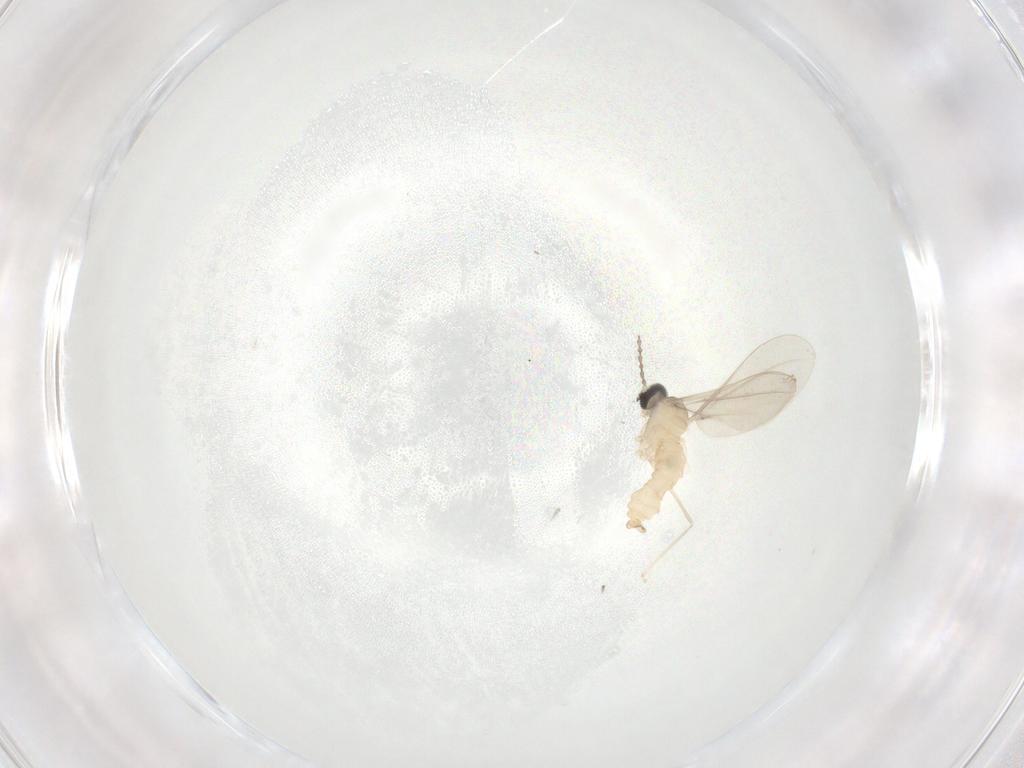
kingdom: Animalia
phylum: Arthropoda
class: Insecta
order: Diptera
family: Cecidomyiidae
